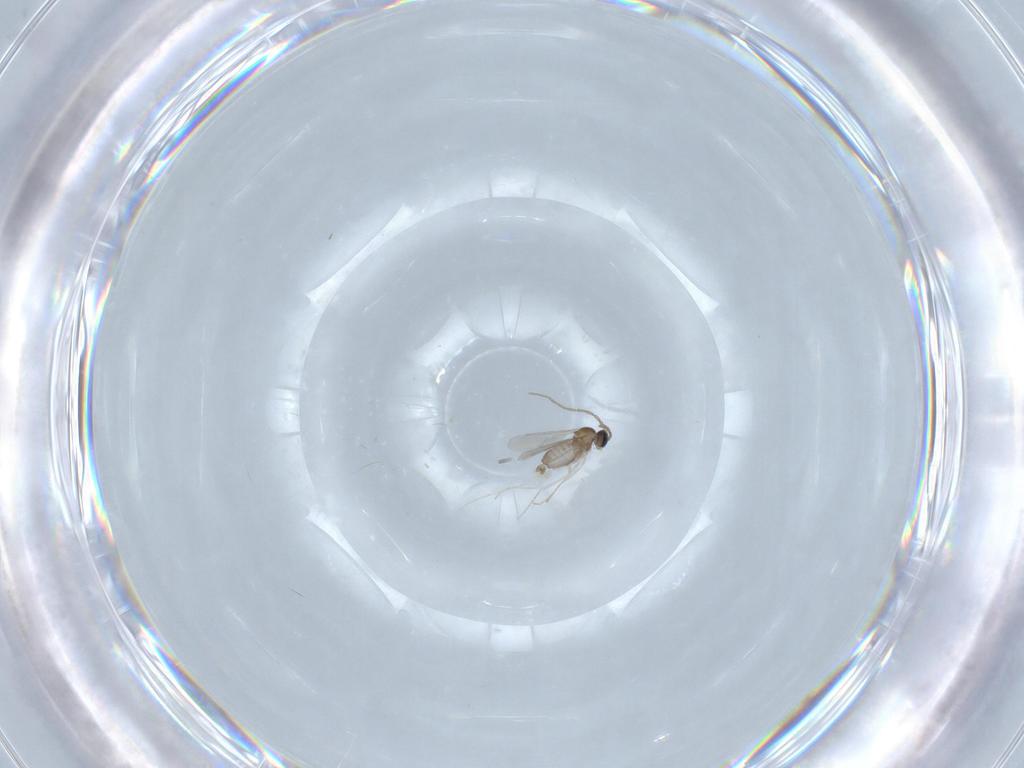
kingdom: Animalia
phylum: Arthropoda
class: Insecta
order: Diptera
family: Cecidomyiidae
